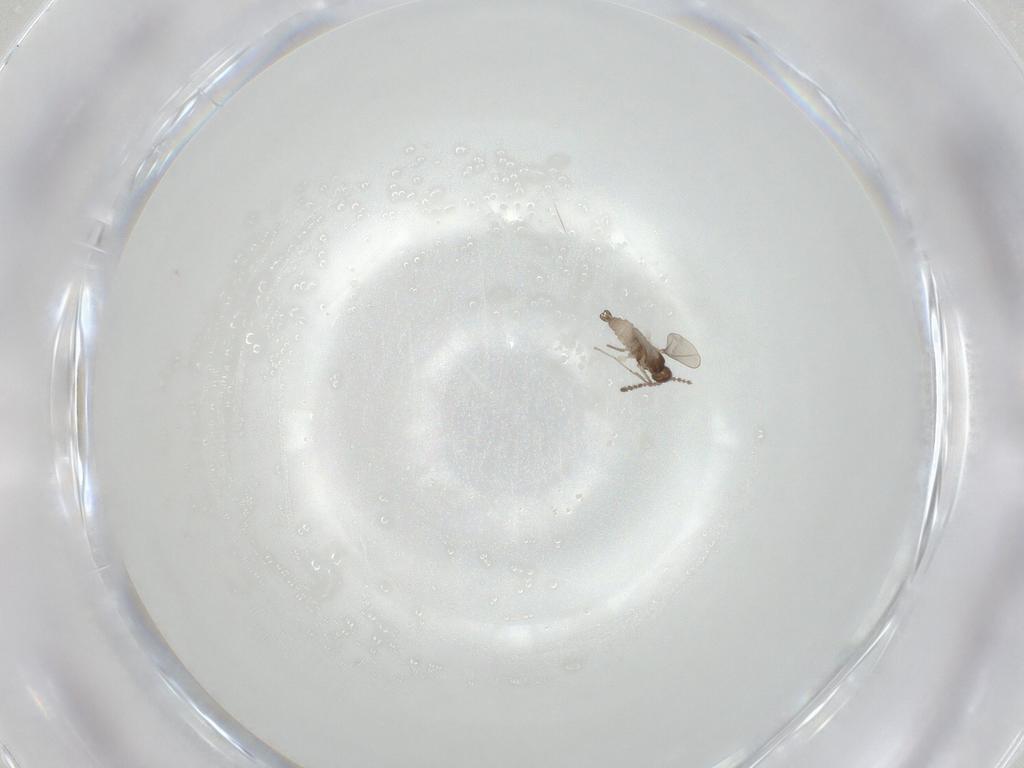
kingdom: Animalia
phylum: Arthropoda
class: Insecta
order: Diptera
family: Cecidomyiidae
